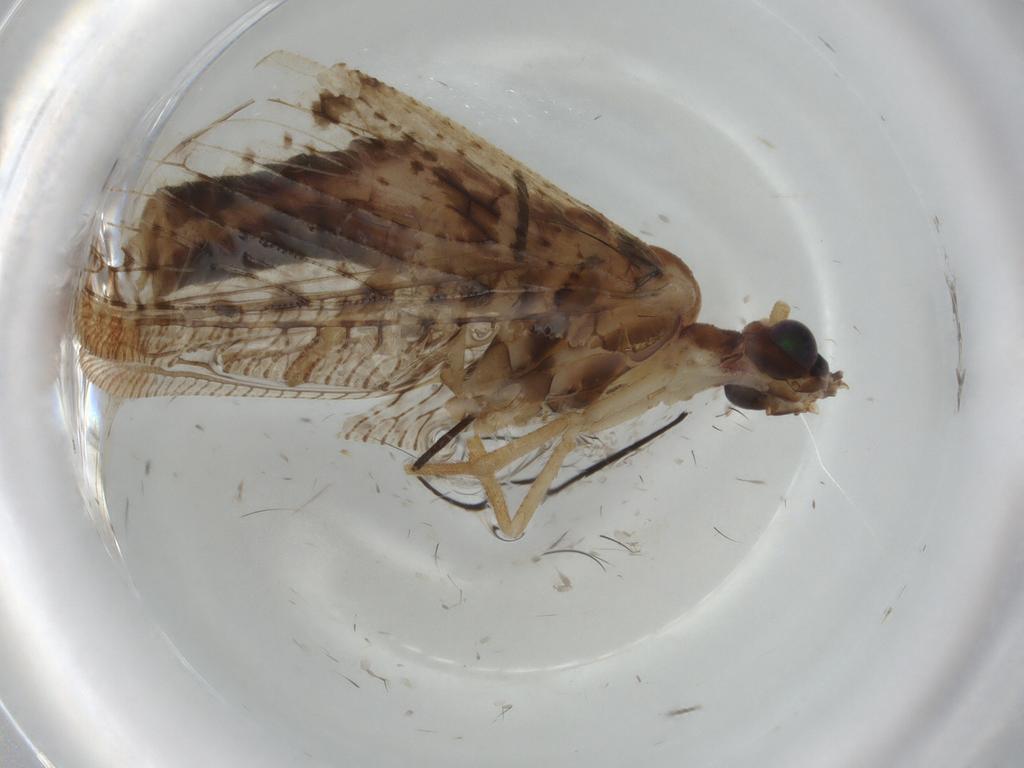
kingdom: Animalia
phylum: Arthropoda
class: Insecta
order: Neuroptera
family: Hemerobiidae
